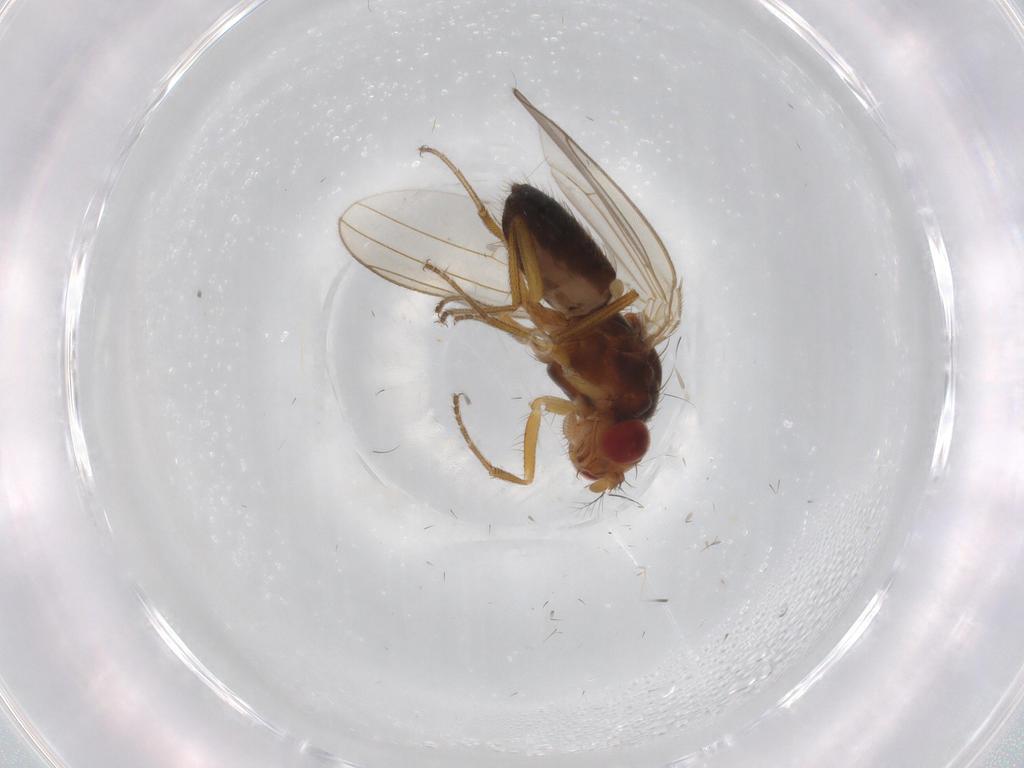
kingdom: Animalia
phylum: Arthropoda
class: Insecta
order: Diptera
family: Drosophilidae
